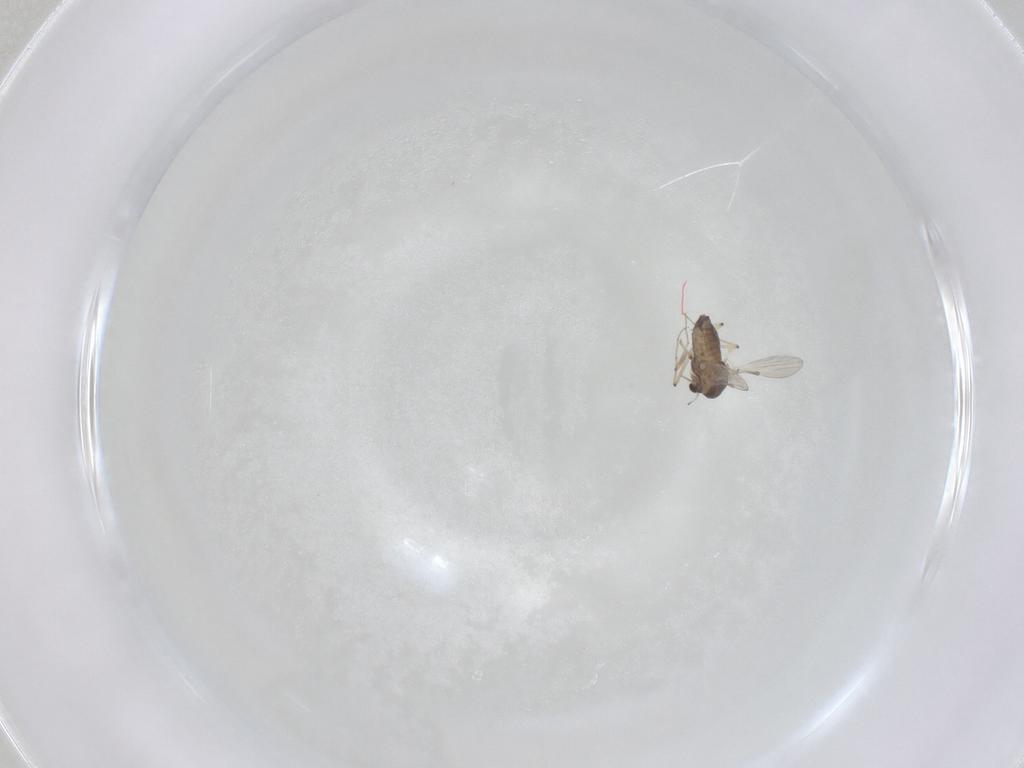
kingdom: Animalia
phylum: Arthropoda
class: Insecta
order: Diptera
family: Chironomidae
